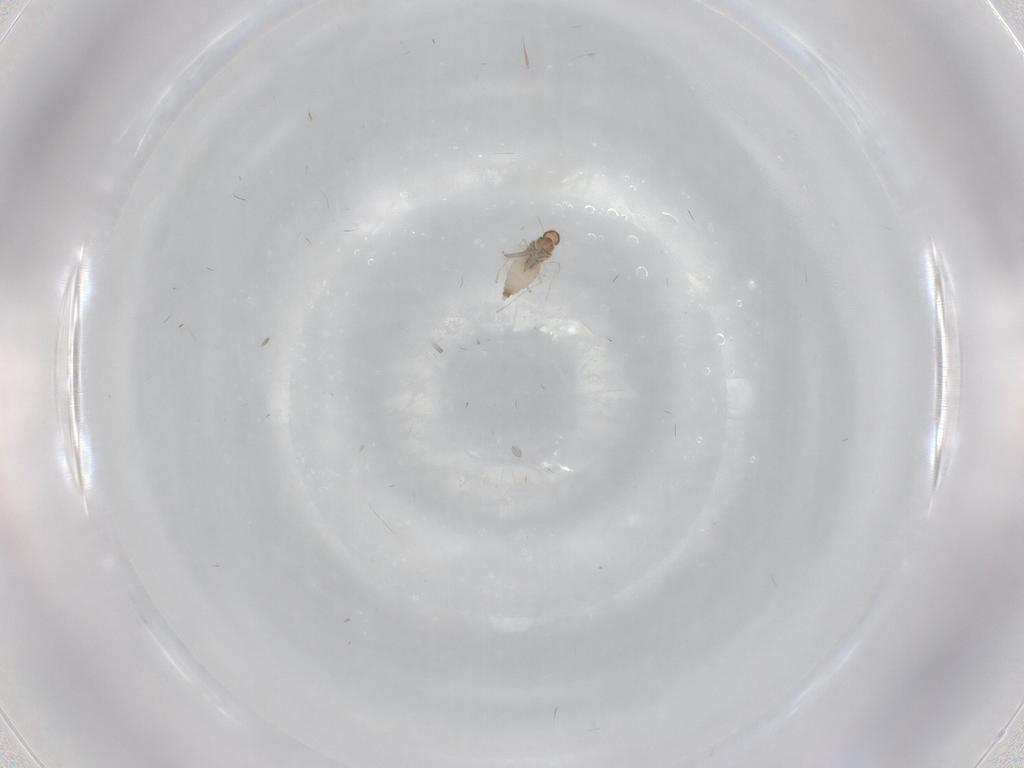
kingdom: Animalia
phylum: Arthropoda
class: Insecta
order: Diptera
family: Cecidomyiidae
